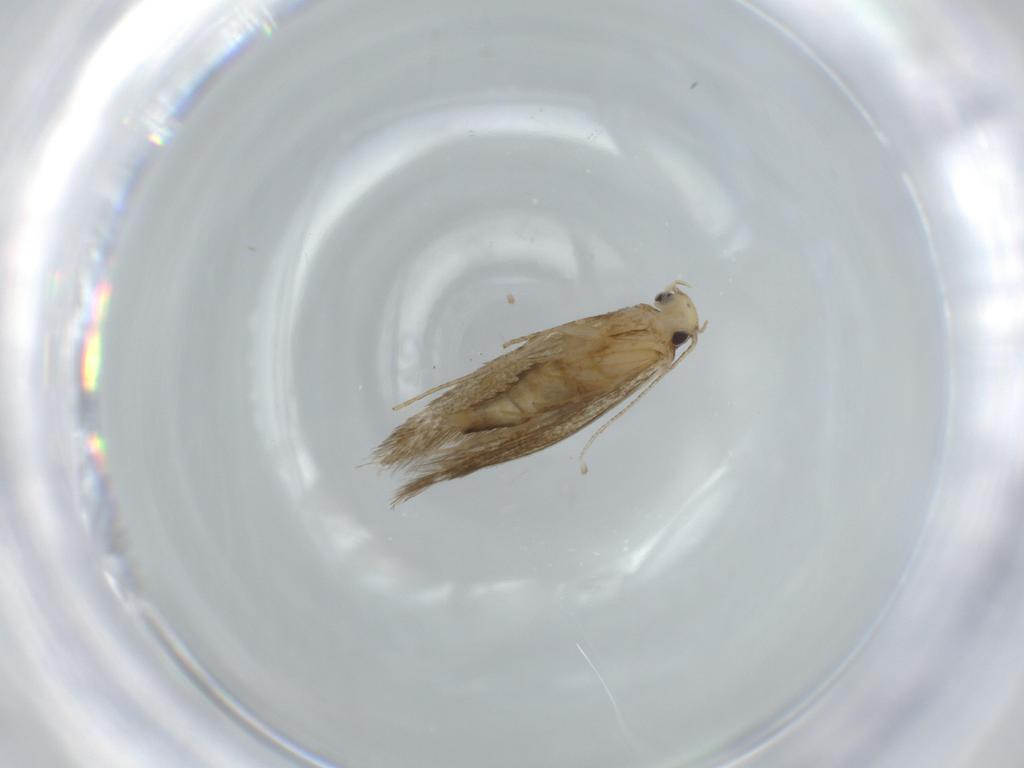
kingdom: Animalia
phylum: Arthropoda
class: Insecta
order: Lepidoptera
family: Tineidae
